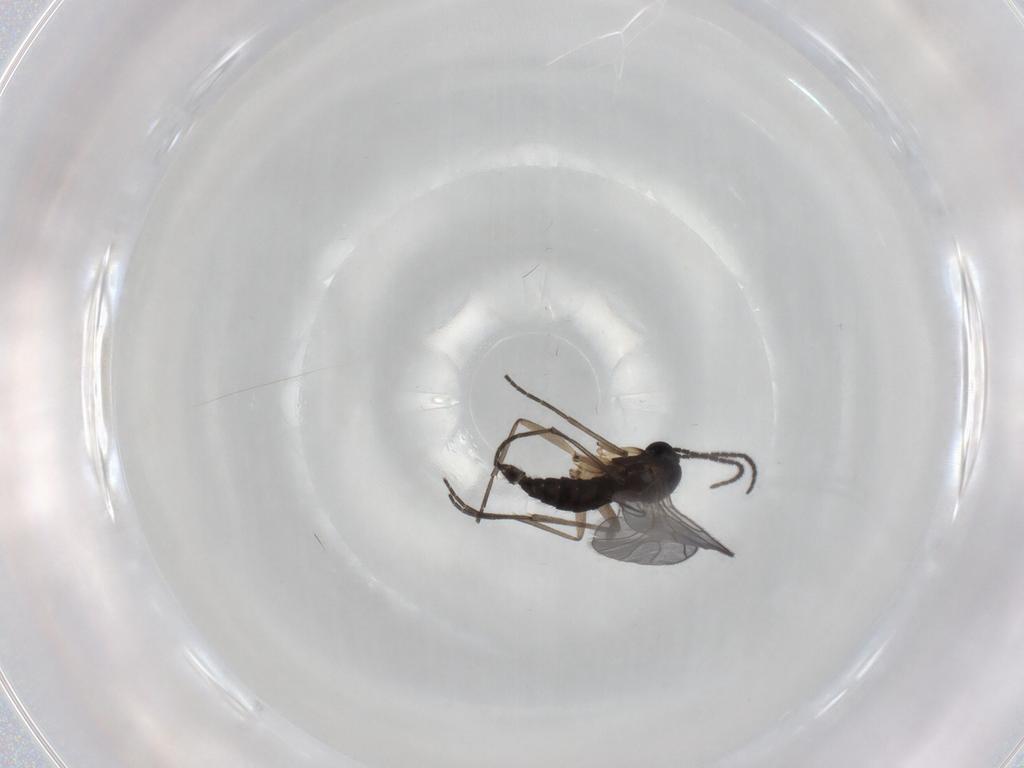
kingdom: Animalia
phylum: Arthropoda
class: Insecta
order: Diptera
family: Sciaridae
